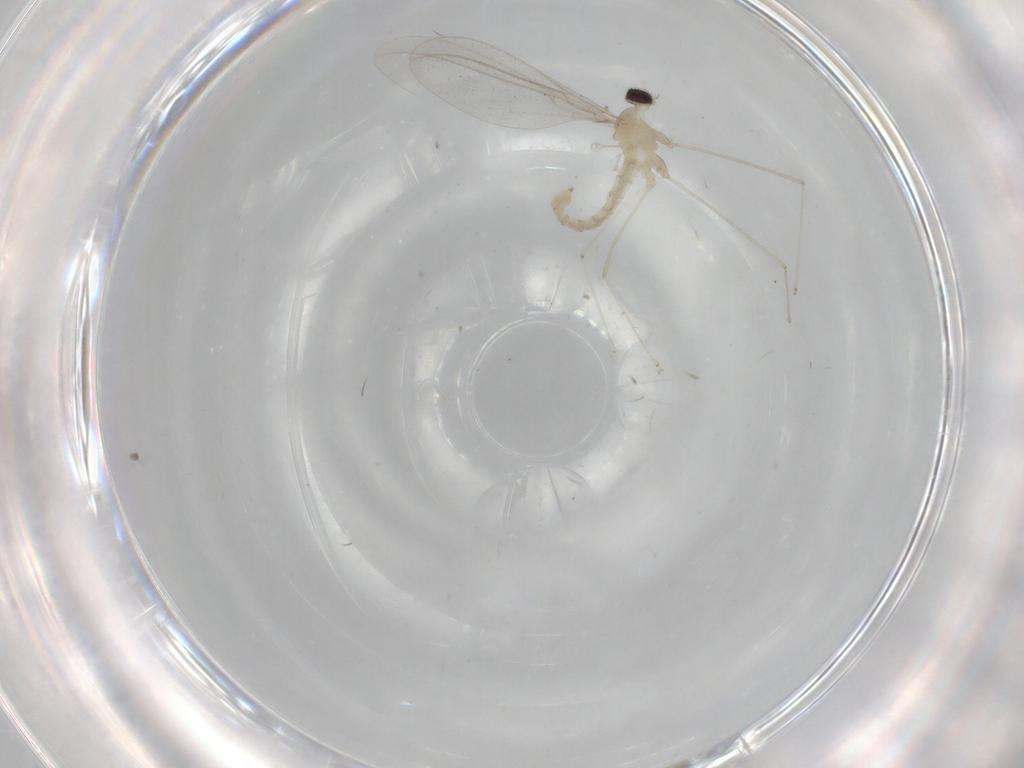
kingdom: Animalia
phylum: Arthropoda
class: Insecta
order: Diptera
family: Cecidomyiidae
